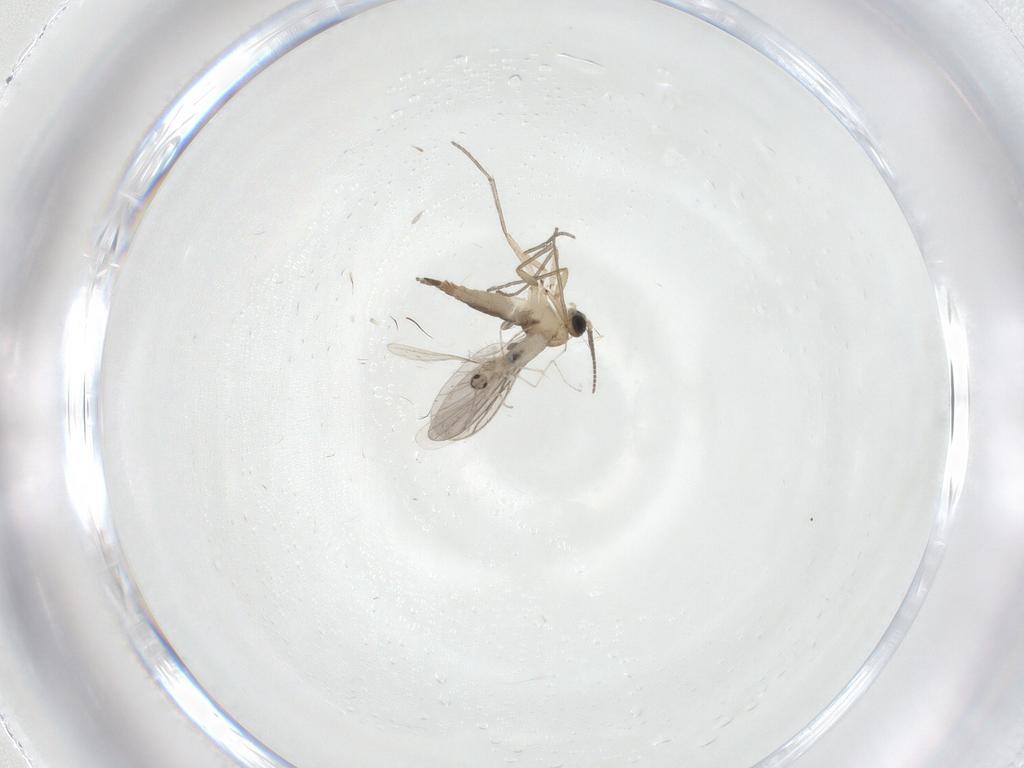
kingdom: Animalia
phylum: Arthropoda
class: Insecta
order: Diptera
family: Cecidomyiidae
